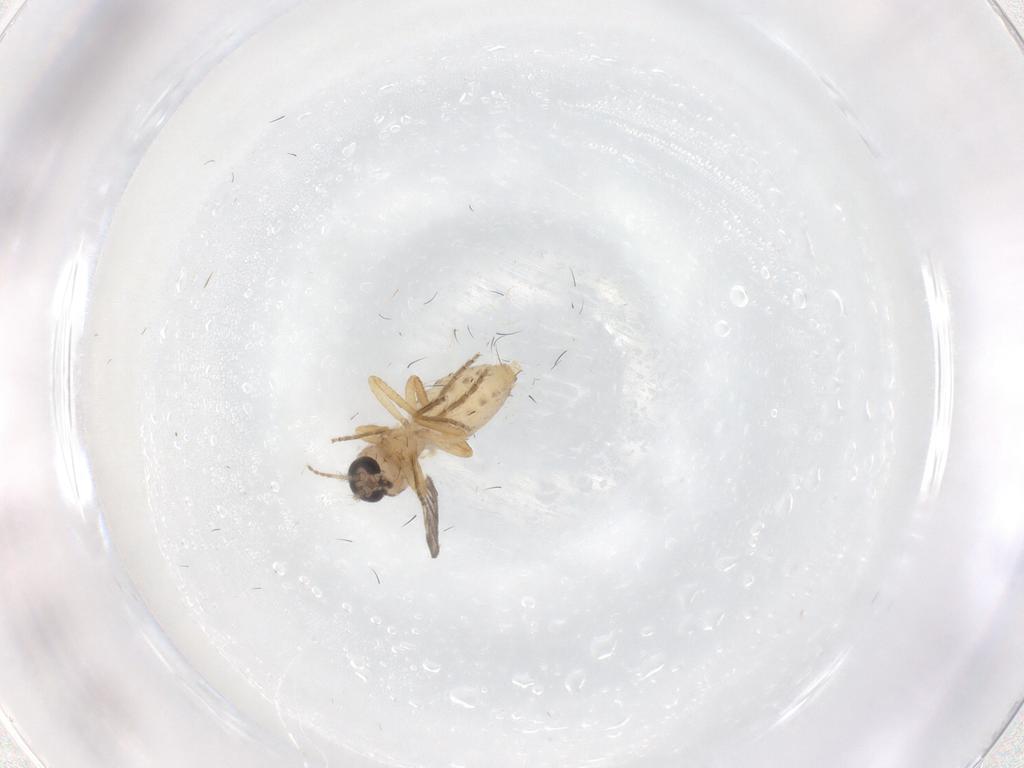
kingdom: Animalia
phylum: Arthropoda
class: Insecta
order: Diptera
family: Ceratopogonidae
